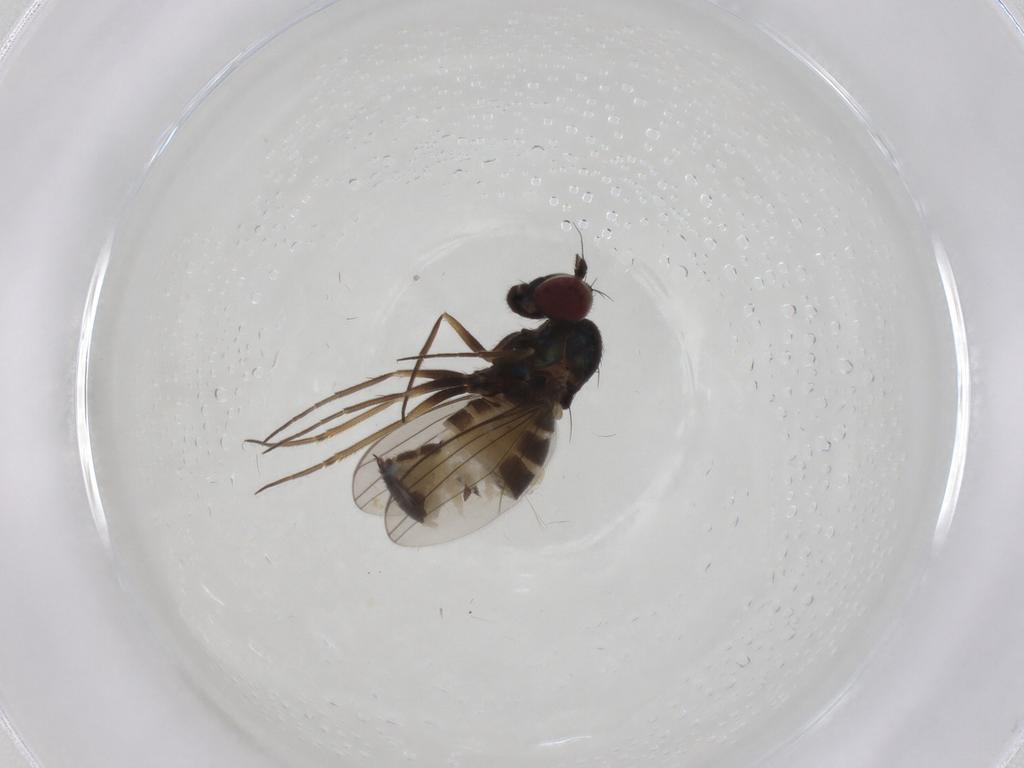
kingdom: Animalia
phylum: Arthropoda
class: Insecta
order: Diptera
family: Dolichopodidae
